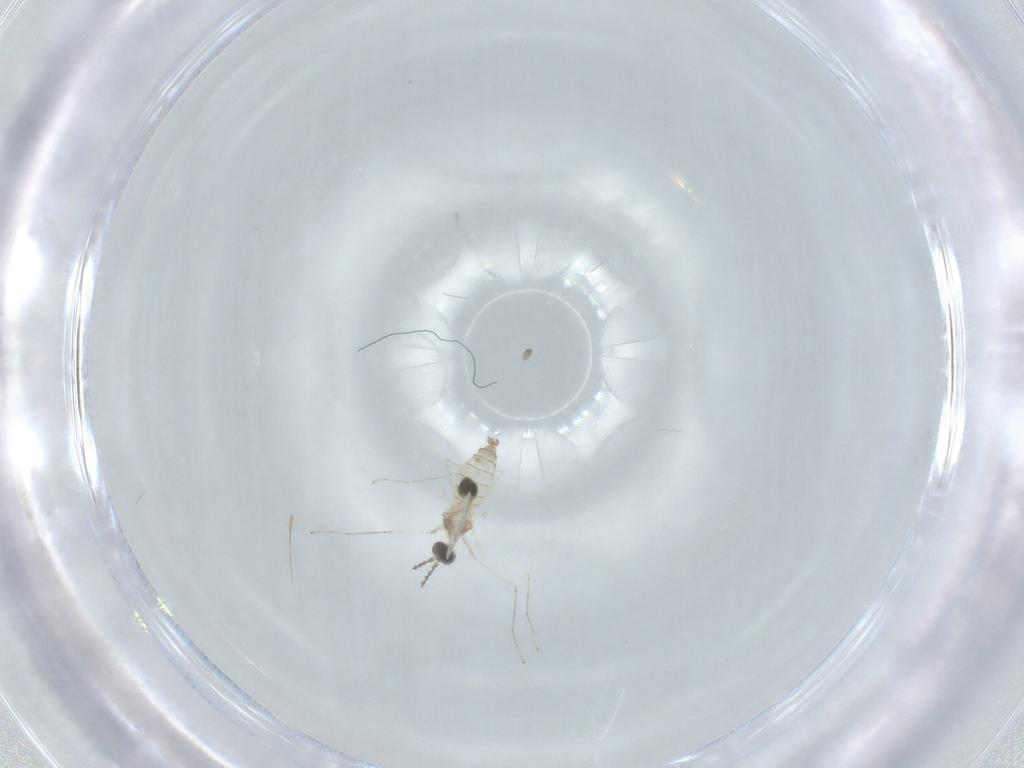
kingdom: Animalia
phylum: Arthropoda
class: Insecta
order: Diptera
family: Cecidomyiidae
